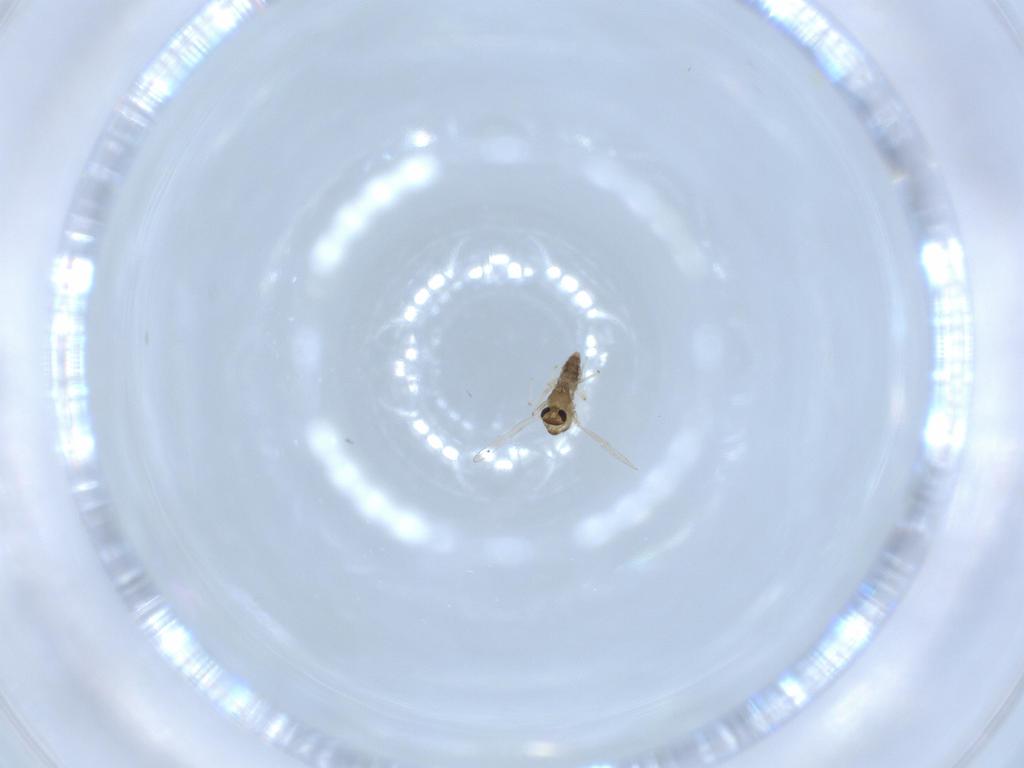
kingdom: Animalia
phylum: Arthropoda
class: Insecta
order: Diptera
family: Chironomidae
